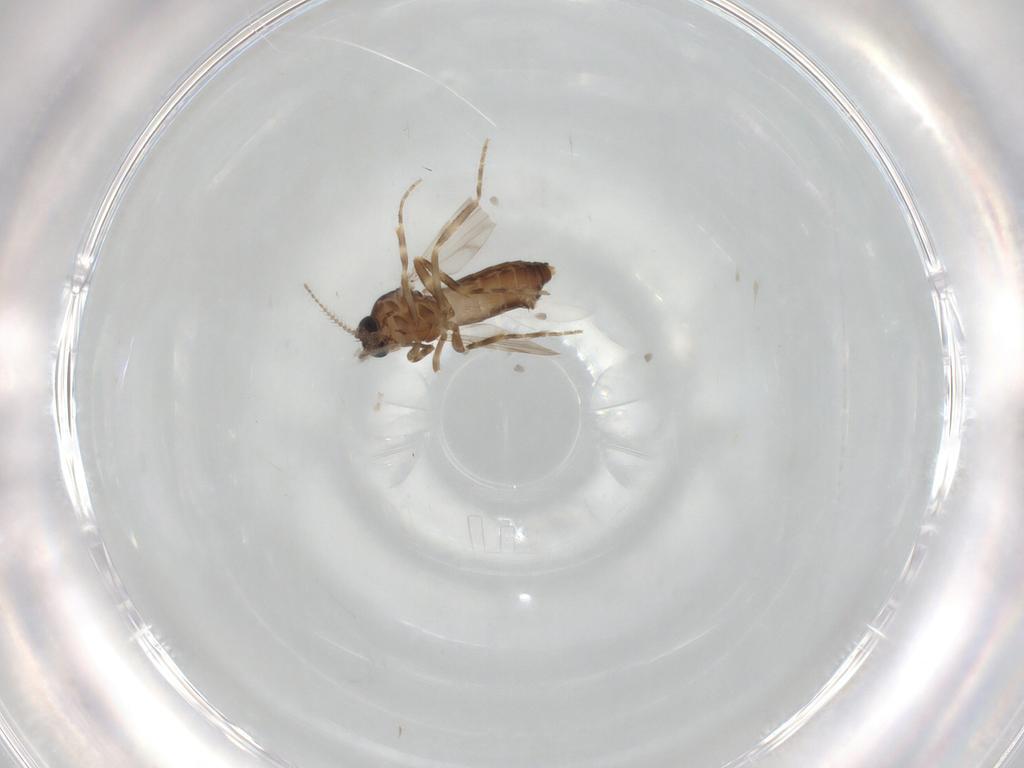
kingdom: Animalia
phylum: Arthropoda
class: Insecta
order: Diptera
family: Ceratopogonidae
